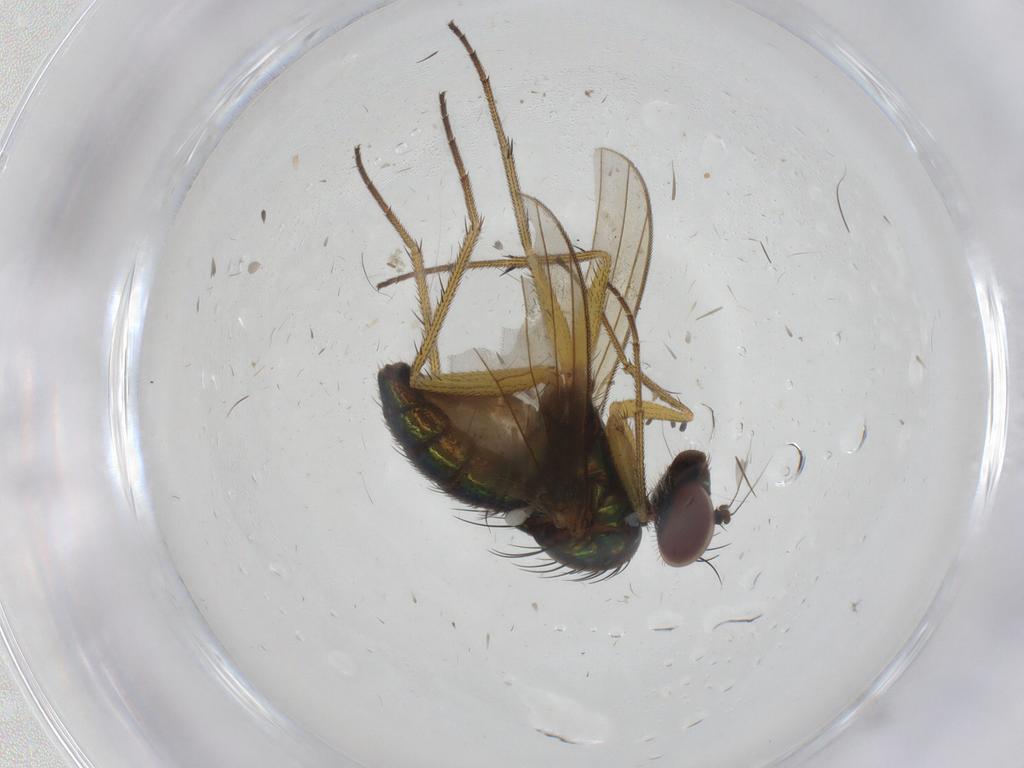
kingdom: Animalia
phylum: Arthropoda
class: Insecta
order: Diptera
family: Dolichopodidae
